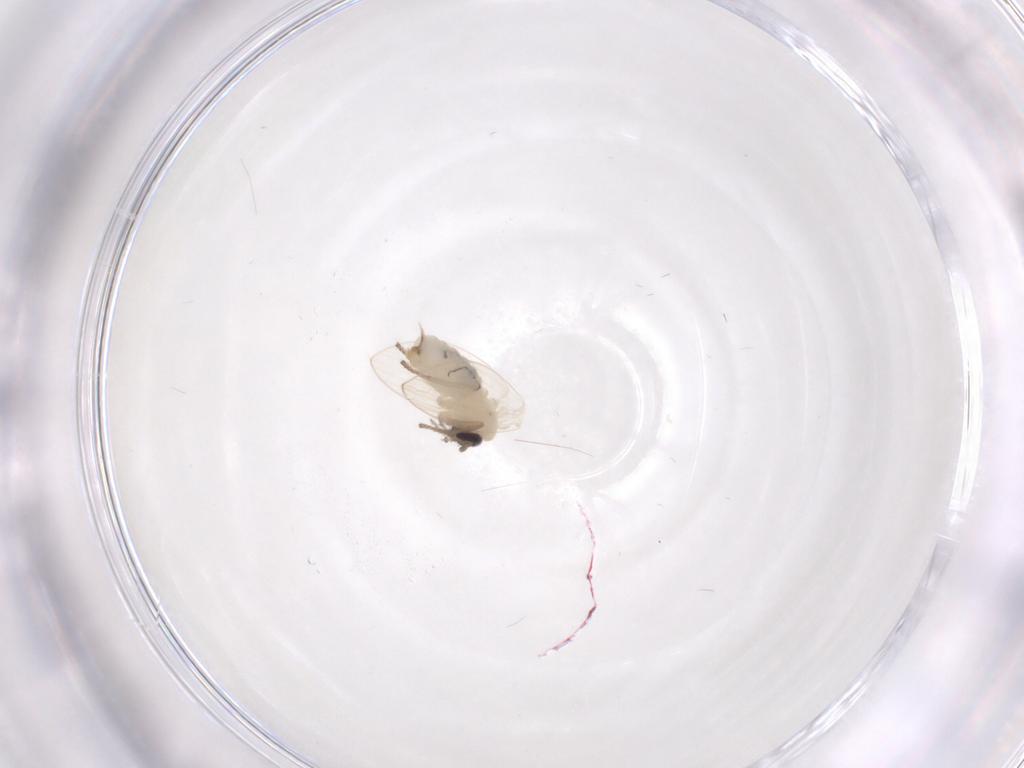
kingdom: Animalia
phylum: Arthropoda
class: Insecta
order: Diptera
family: Psychodidae
